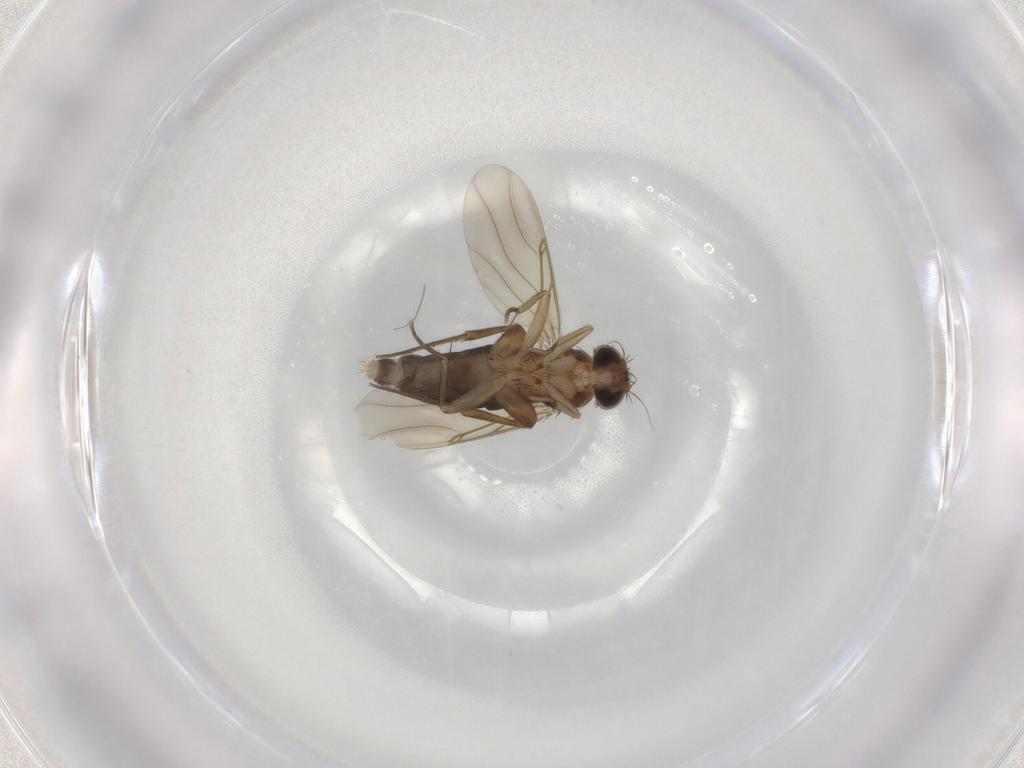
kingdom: Animalia
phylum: Arthropoda
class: Insecta
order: Diptera
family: Phoridae
